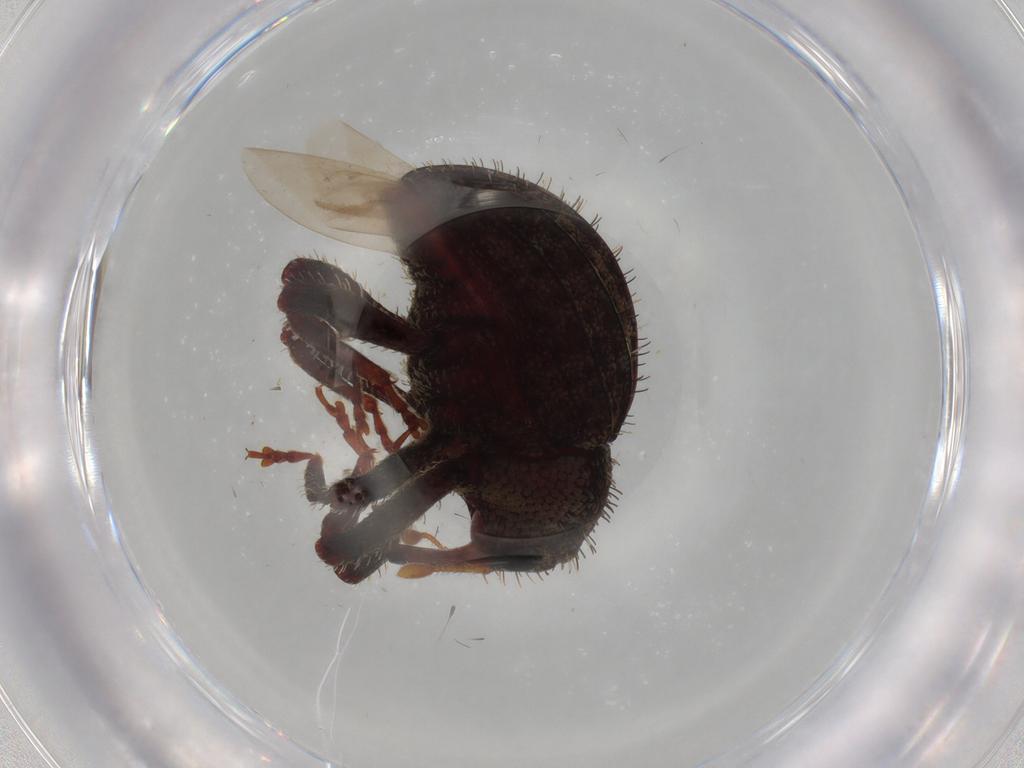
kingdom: Animalia
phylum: Arthropoda
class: Insecta
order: Coleoptera
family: Curculionidae
